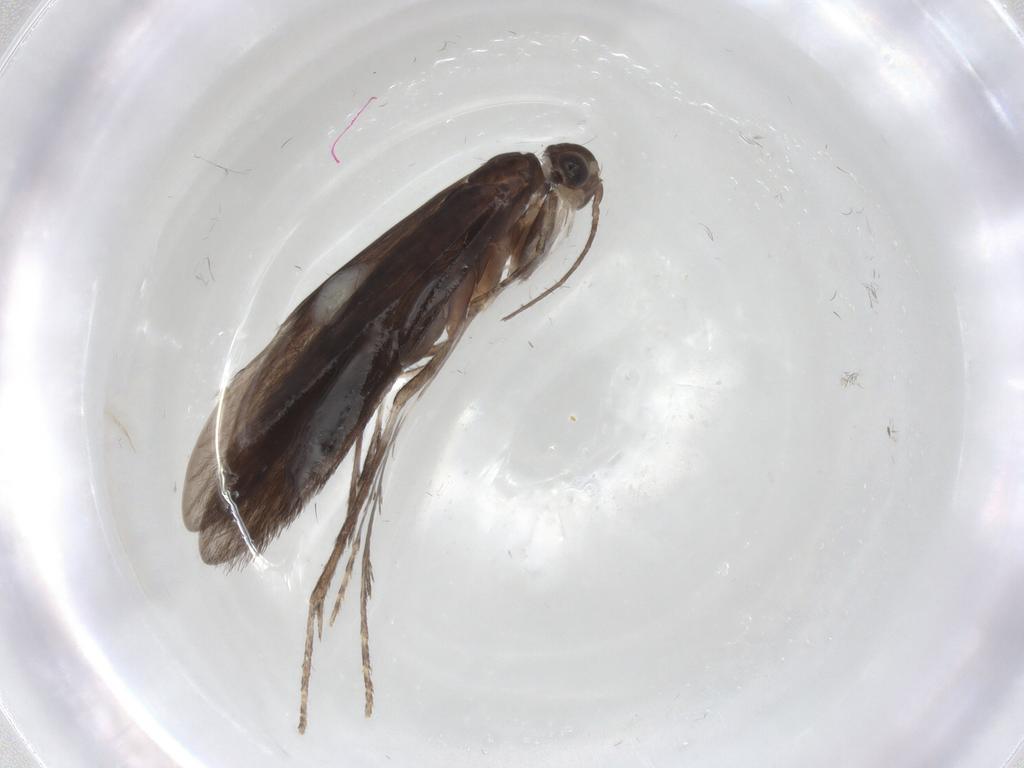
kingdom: Animalia
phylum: Arthropoda
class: Insecta
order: Trichoptera
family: Xiphocentronidae
